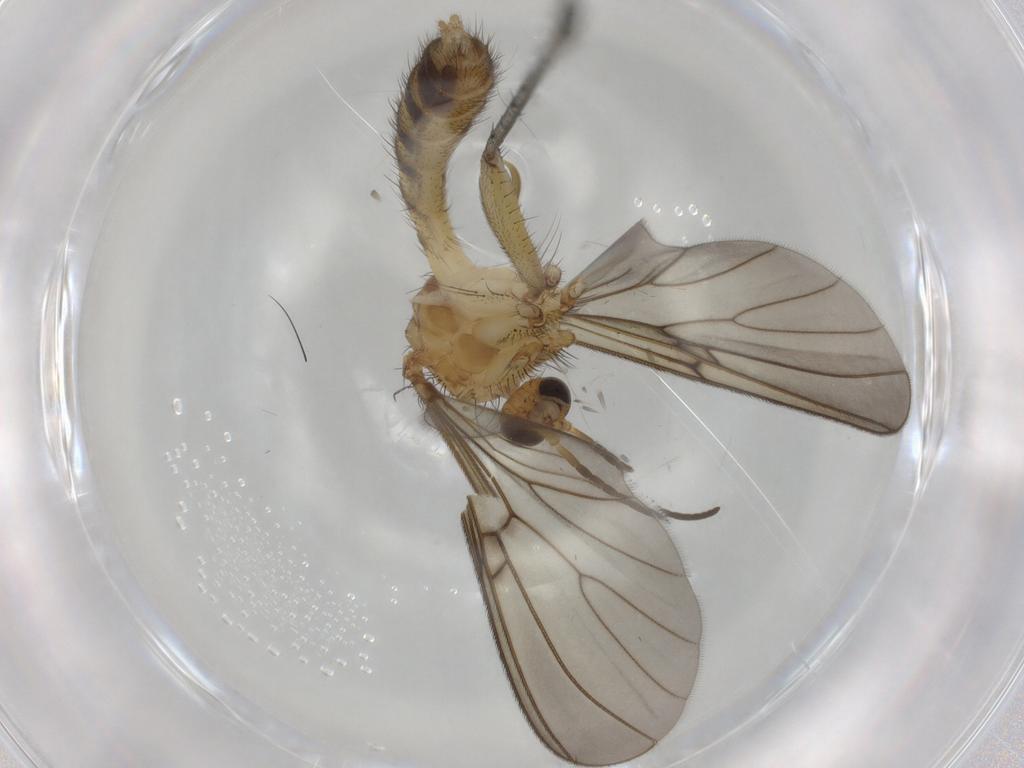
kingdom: Animalia
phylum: Arthropoda
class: Insecta
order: Diptera
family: Mycetophilidae
